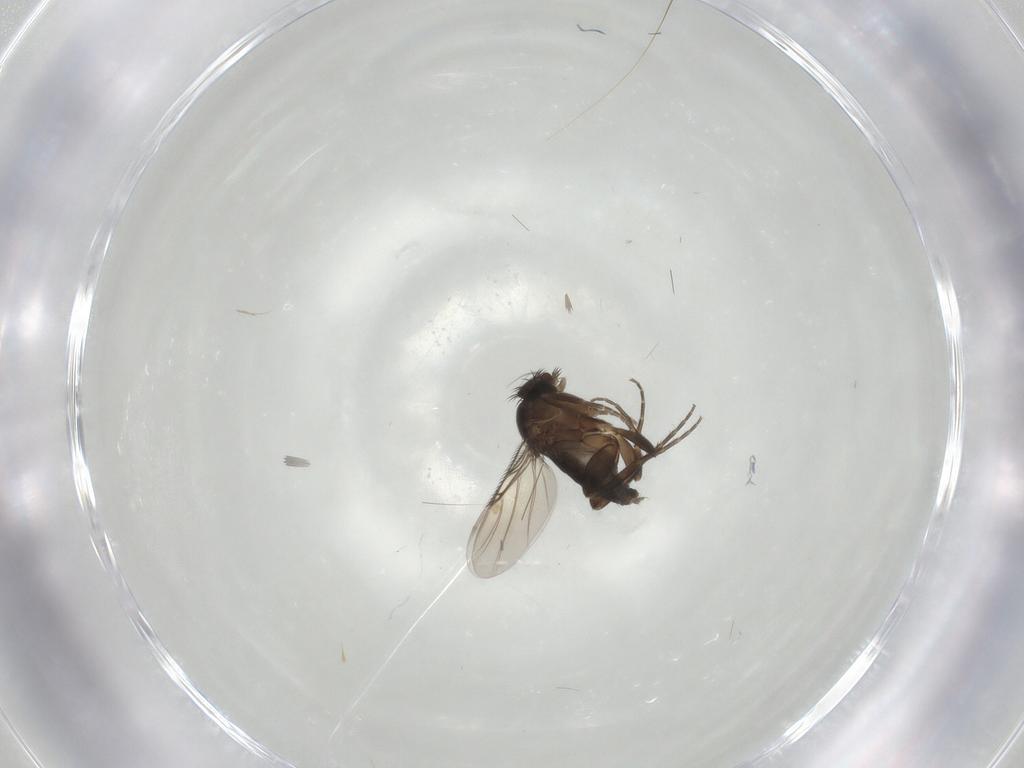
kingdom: Animalia
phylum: Arthropoda
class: Insecta
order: Diptera
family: Phoridae
